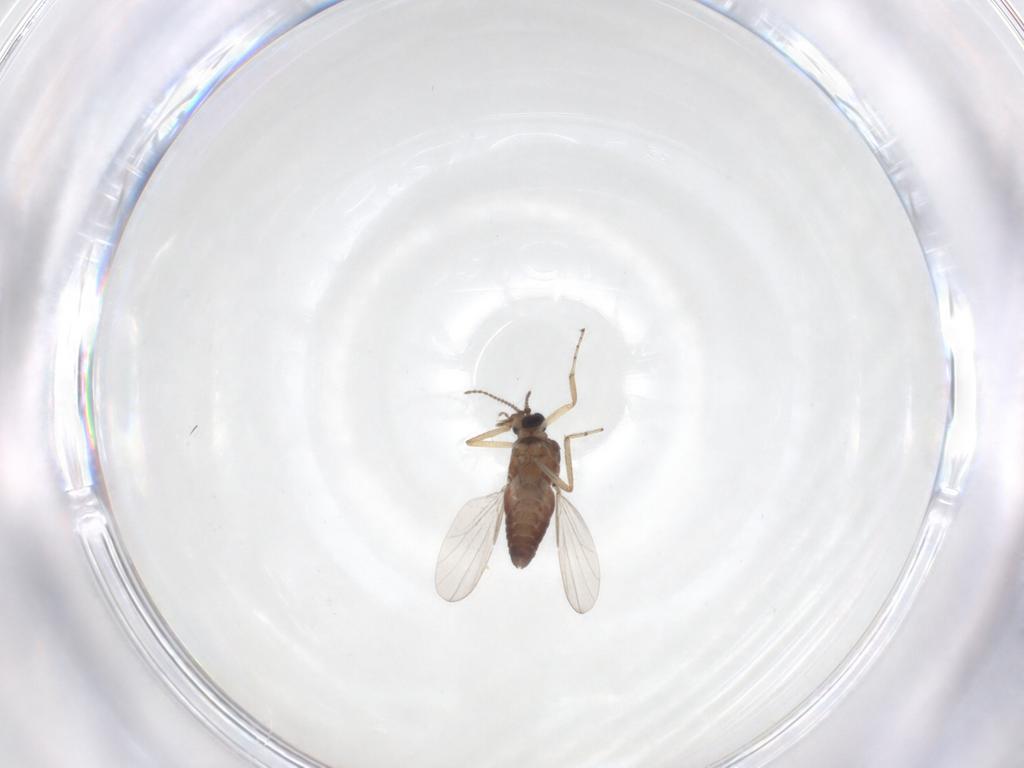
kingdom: Animalia
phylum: Arthropoda
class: Insecta
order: Diptera
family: Ceratopogonidae
